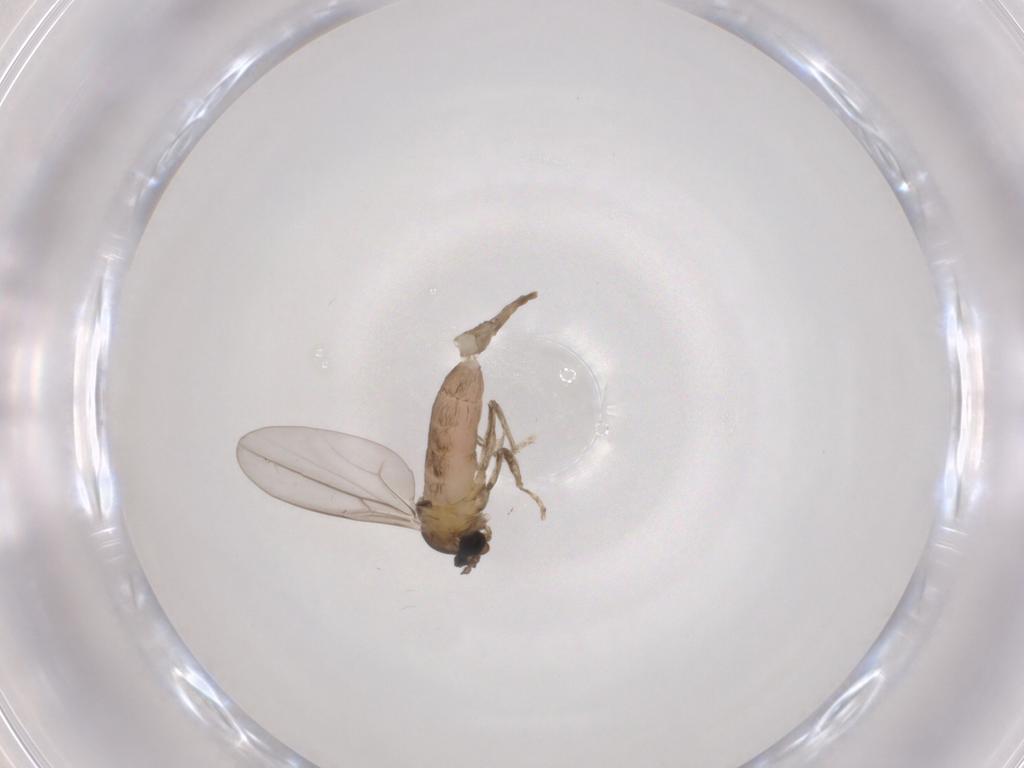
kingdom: Animalia
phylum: Arthropoda
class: Insecta
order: Diptera
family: Cecidomyiidae
